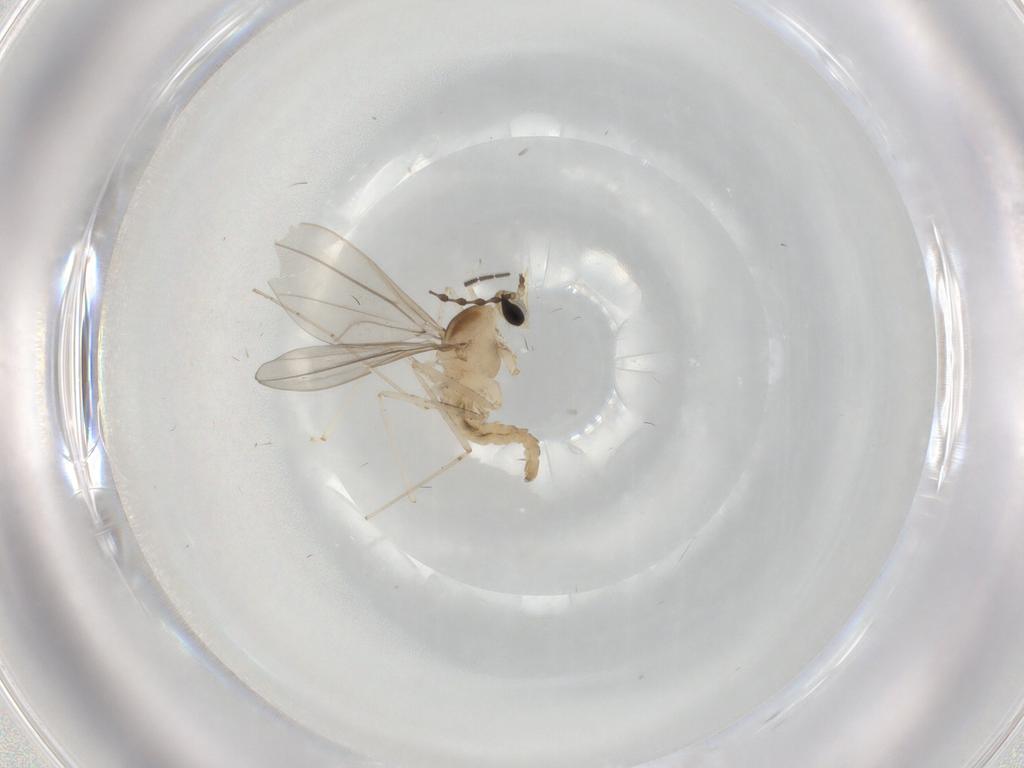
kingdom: Animalia
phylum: Arthropoda
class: Insecta
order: Diptera
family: Cecidomyiidae
